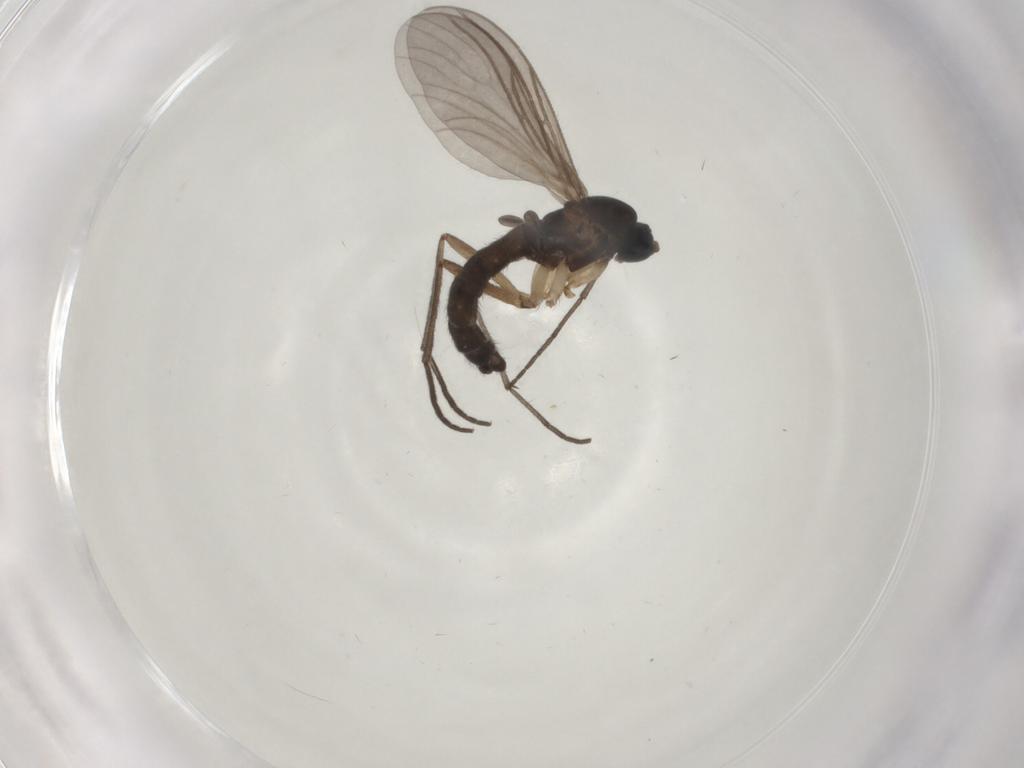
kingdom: Animalia
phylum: Arthropoda
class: Insecta
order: Diptera
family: Sciaridae
